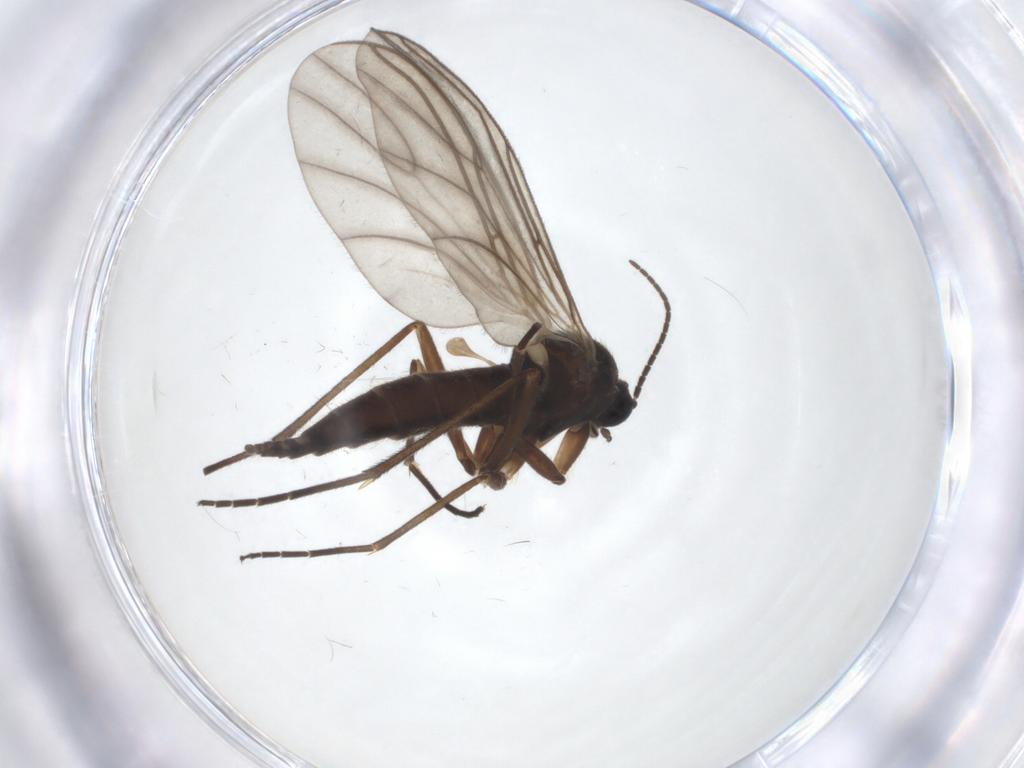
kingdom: Animalia
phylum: Arthropoda
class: Insecta
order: Diptera
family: Sciaridae
